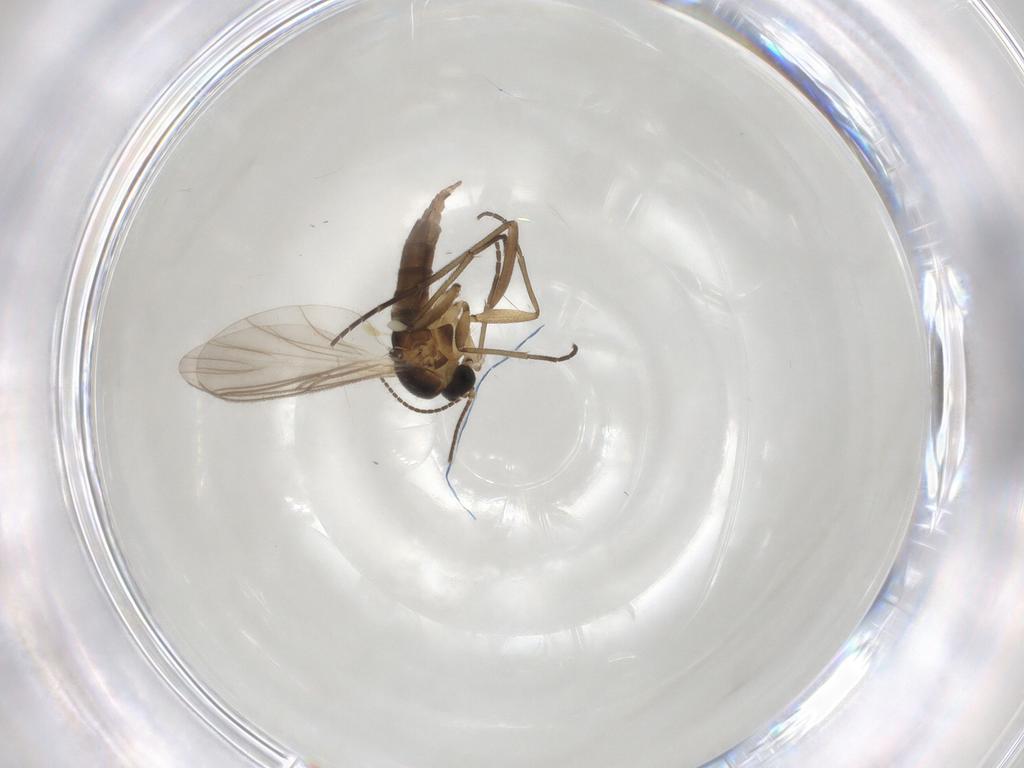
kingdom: Animalia
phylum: Arthropoda
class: Insecta
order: Diptera
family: Sciaridae
